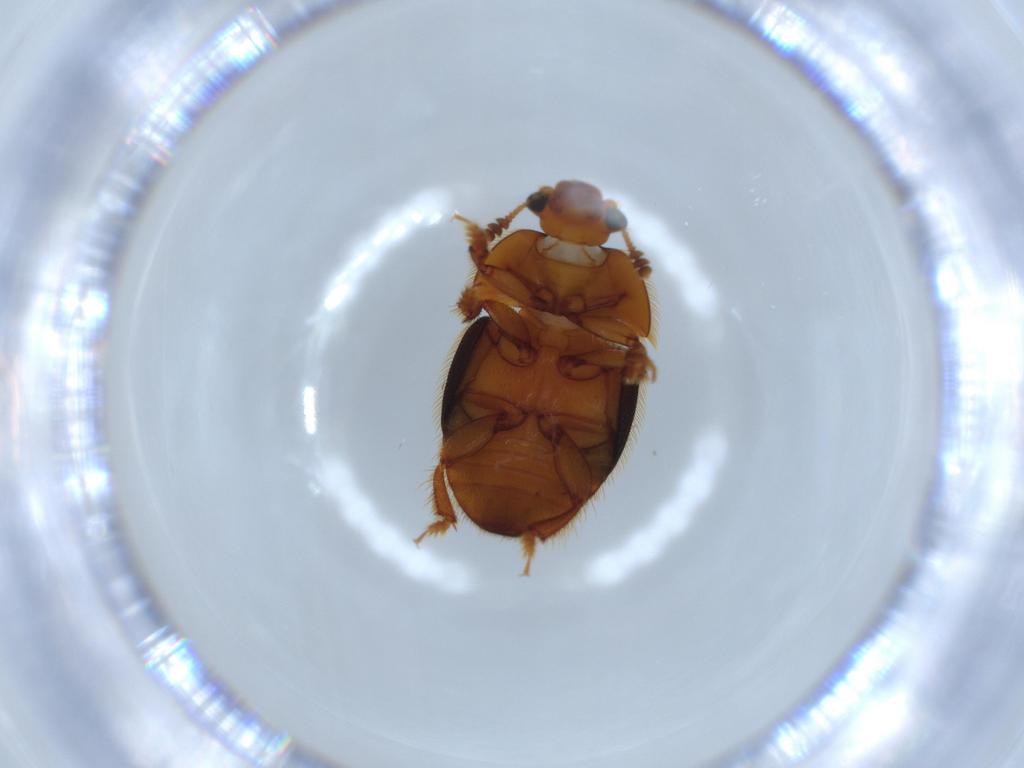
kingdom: Animalia
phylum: Arthropoda
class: Insecta
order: Coleoptera
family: Nitidulidae
